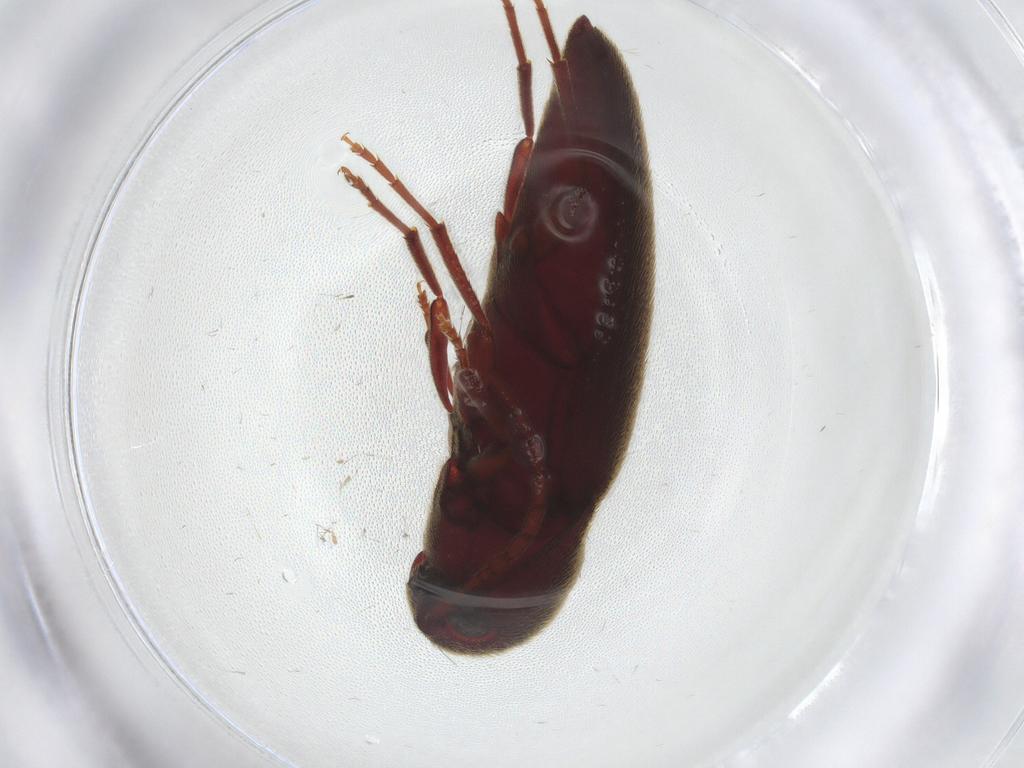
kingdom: Animalia
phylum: Arthropoda
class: Insecta
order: Coleoptera
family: Eucnemidae
